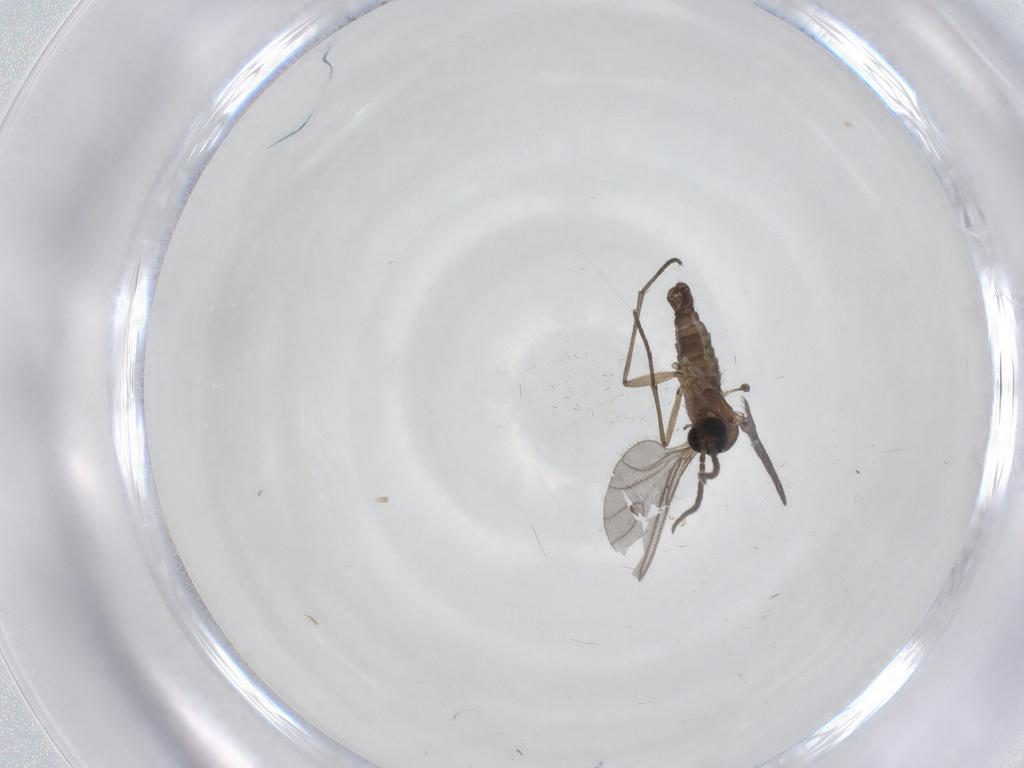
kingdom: Animalia
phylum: Arthropoda
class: Insecta
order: Diptera
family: Sciaridae
